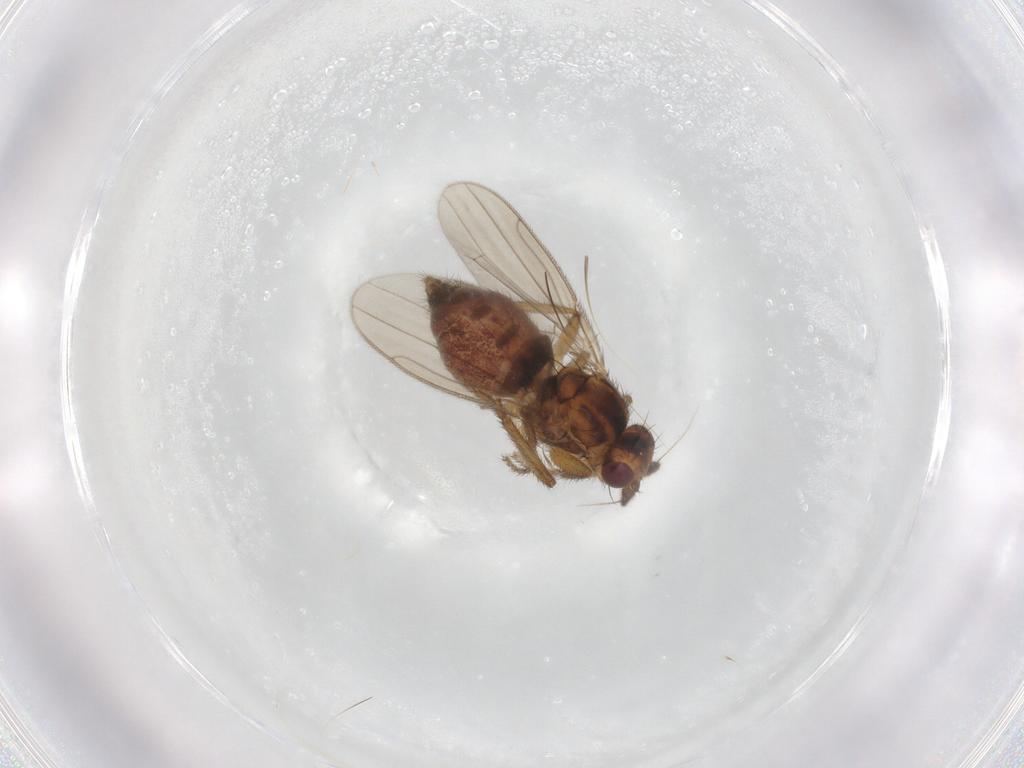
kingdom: Animalia
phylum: Arthropoda
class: Insecta
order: Diptera
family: Sphaeroceridae
